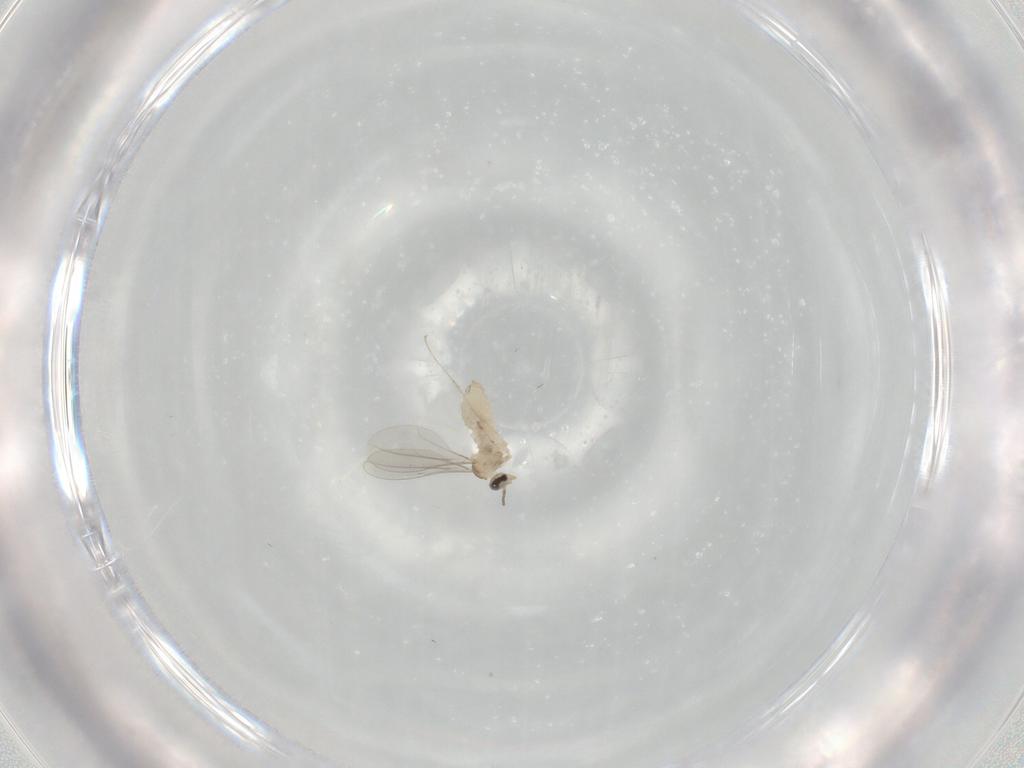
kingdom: Animalia
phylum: Arthropoda
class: Insecta
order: Diptera
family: Cecidomyiidae
